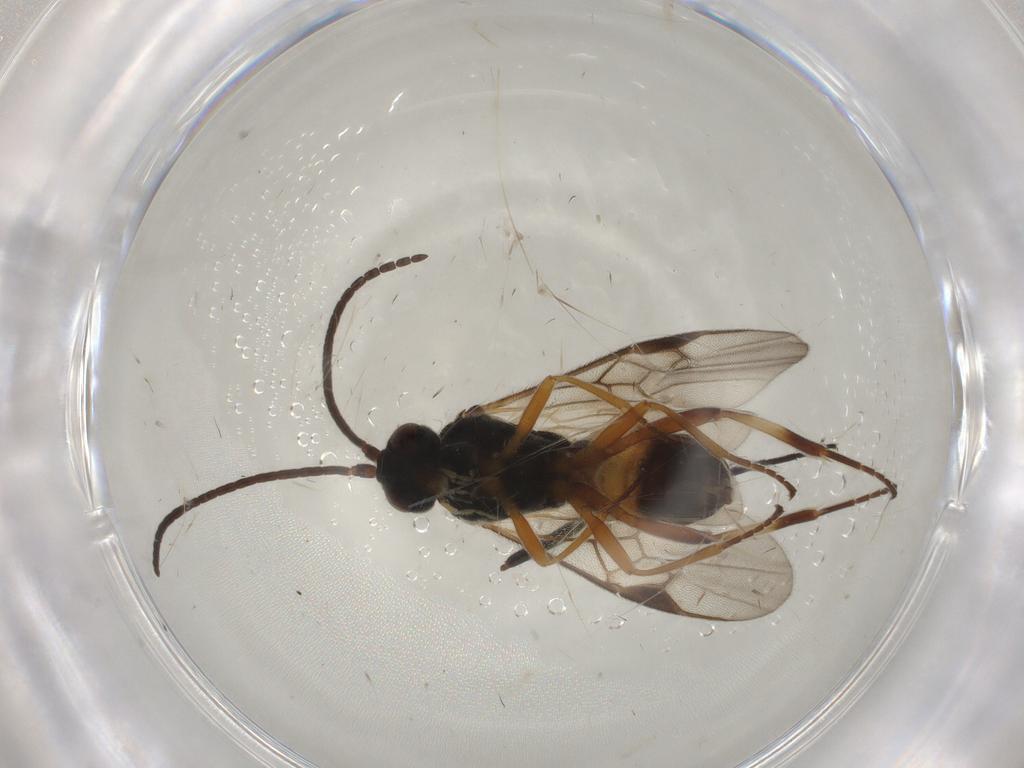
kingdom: Animalia
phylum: Arthropoda
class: Insecta
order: Hymenoptera
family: Braconidae
